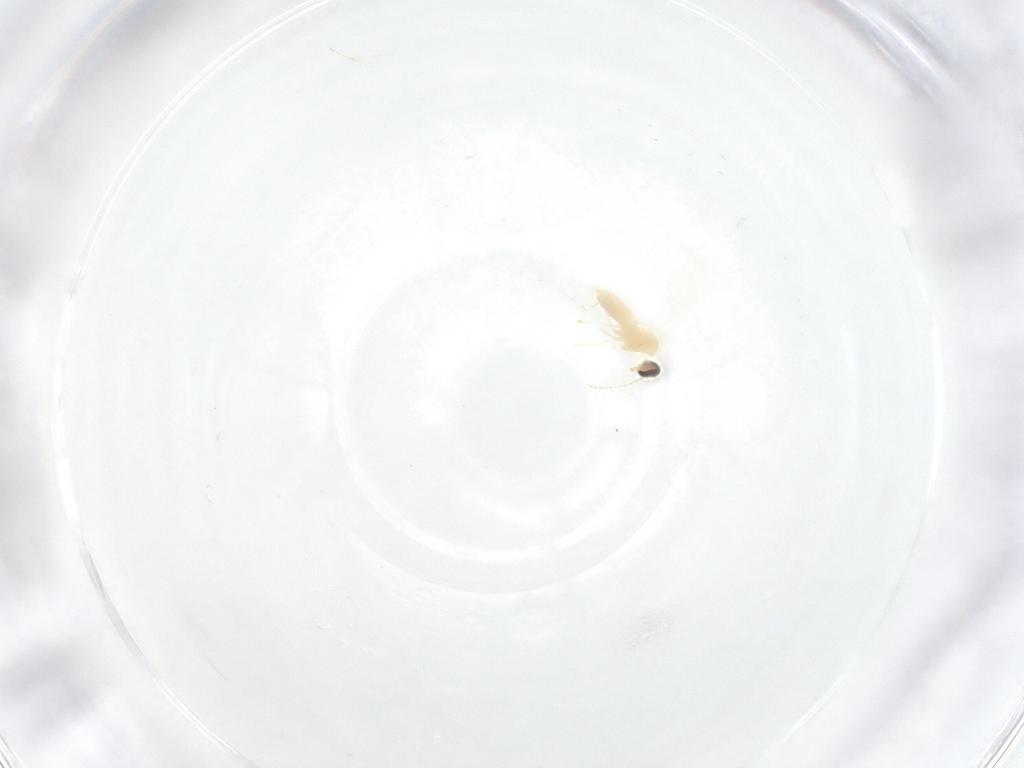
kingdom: Animalia
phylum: Arthropoda
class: Insecta
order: Diptera
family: Cecidomyiidae
